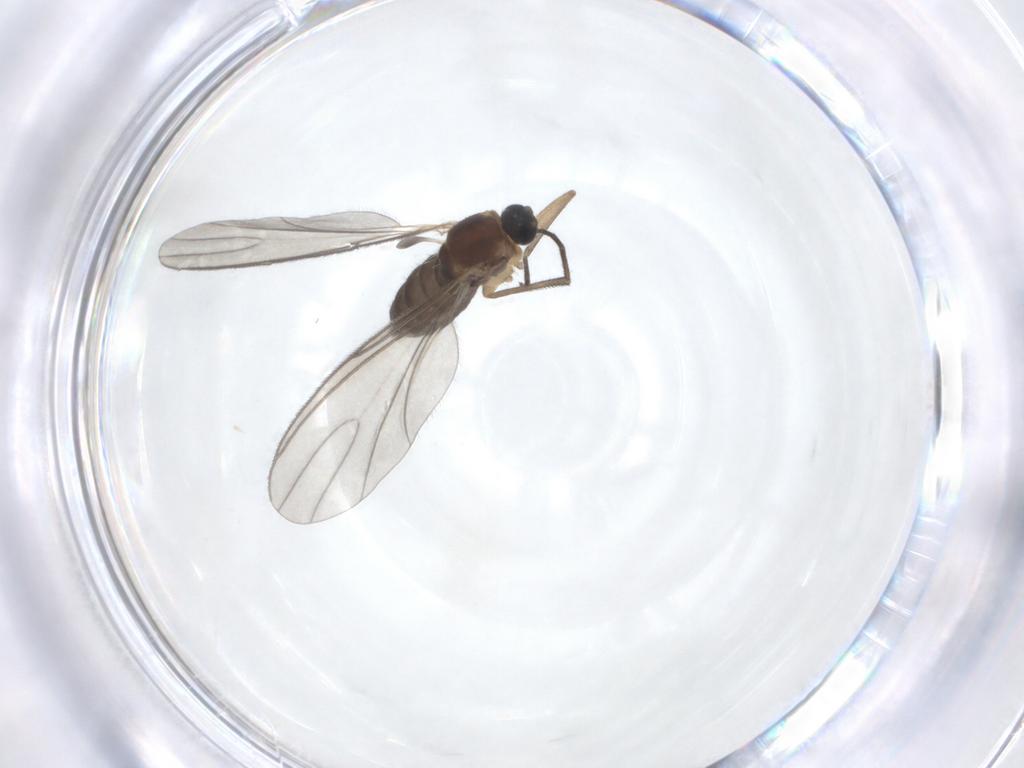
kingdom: Animalia
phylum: Arthropoda
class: Insecta
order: Diptera
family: Sciaridae
